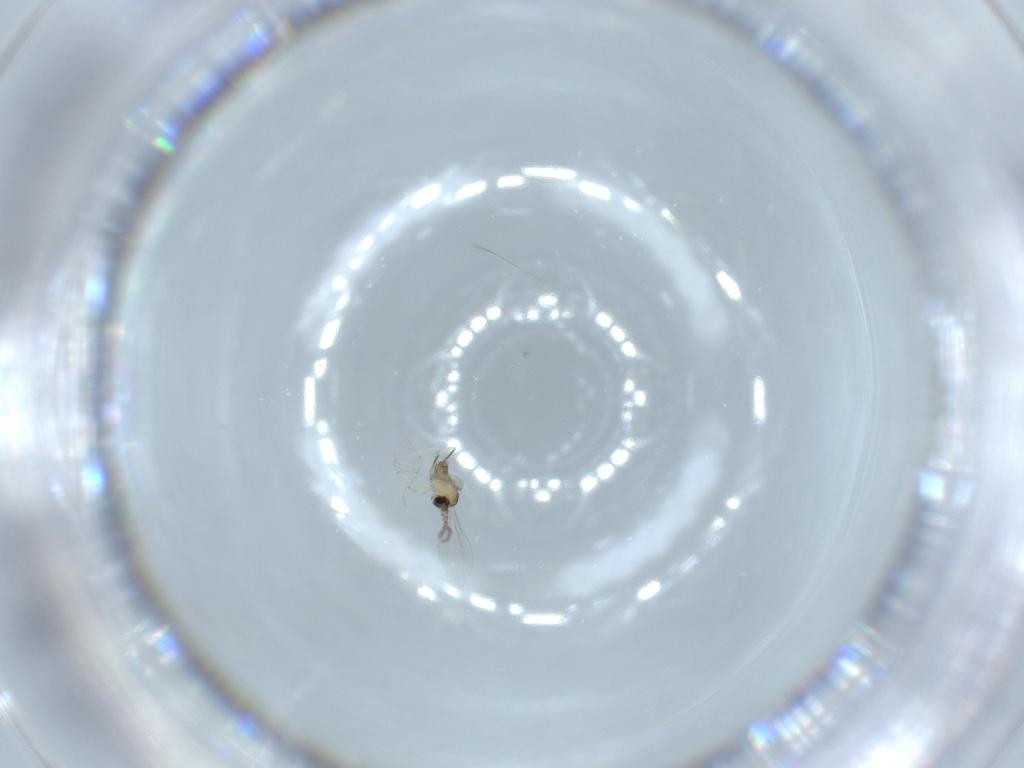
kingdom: Animalia
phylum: Arthropoda
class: Insecta
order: Diptera
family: Cecidomyiidae
